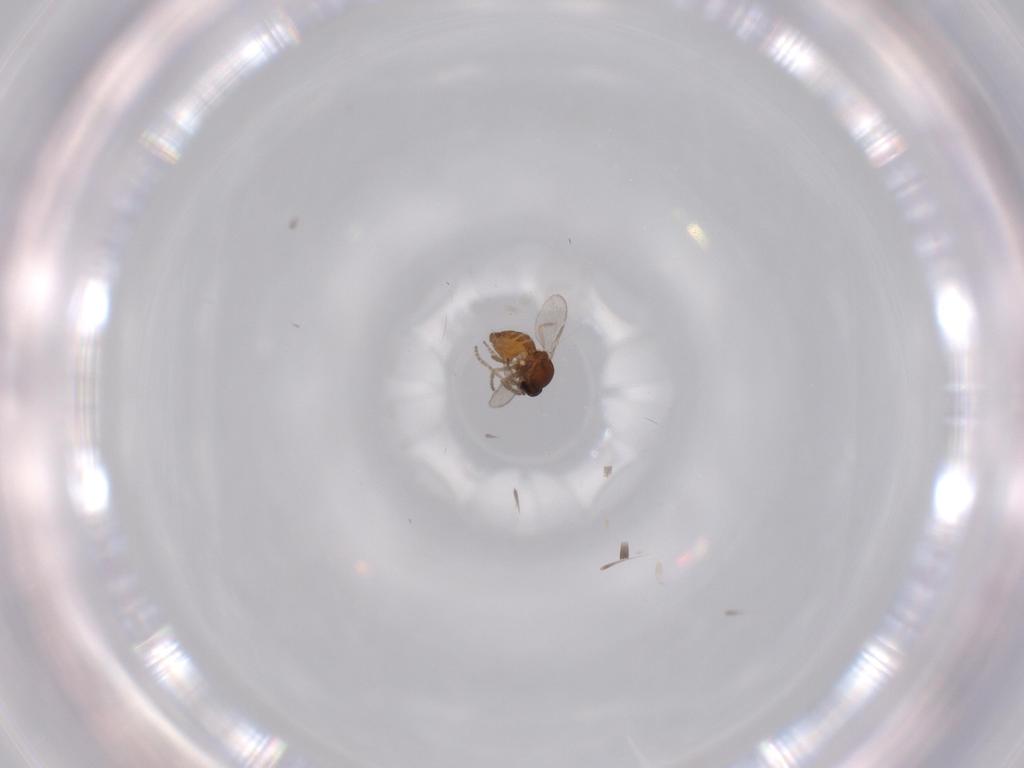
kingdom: Animalia
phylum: Arthropoda
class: Insecta
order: Diptera
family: Ceratopogonidae
